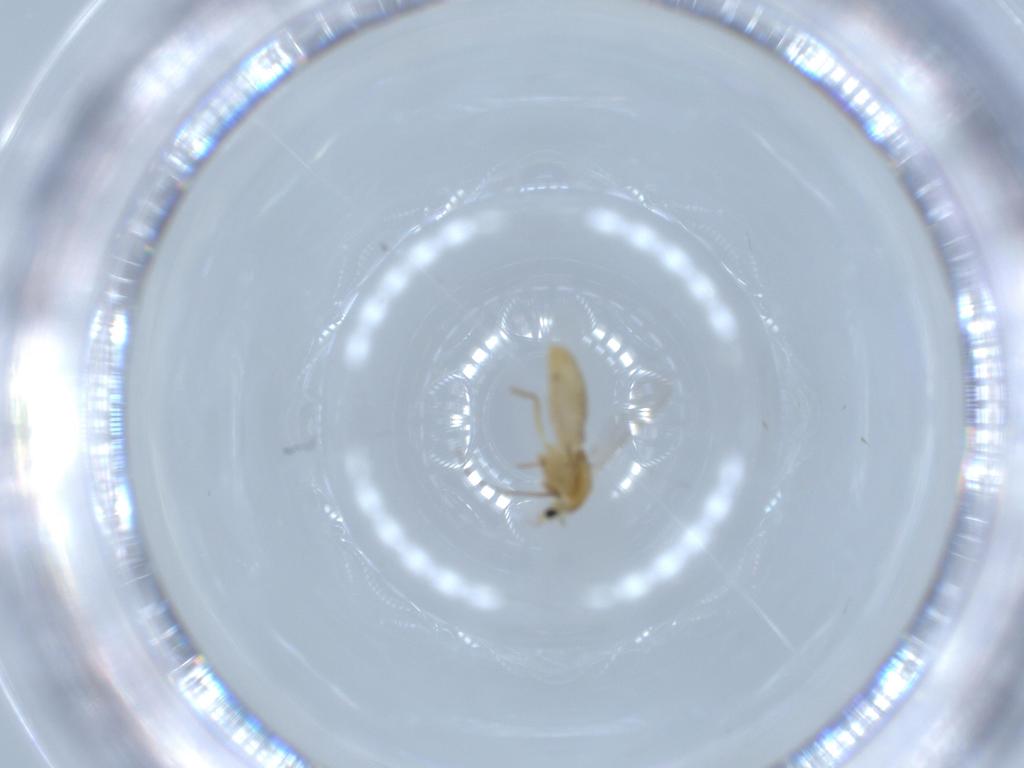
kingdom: Animalia
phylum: Arthropoda
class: Insecta
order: Diptera
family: Chironomidae
